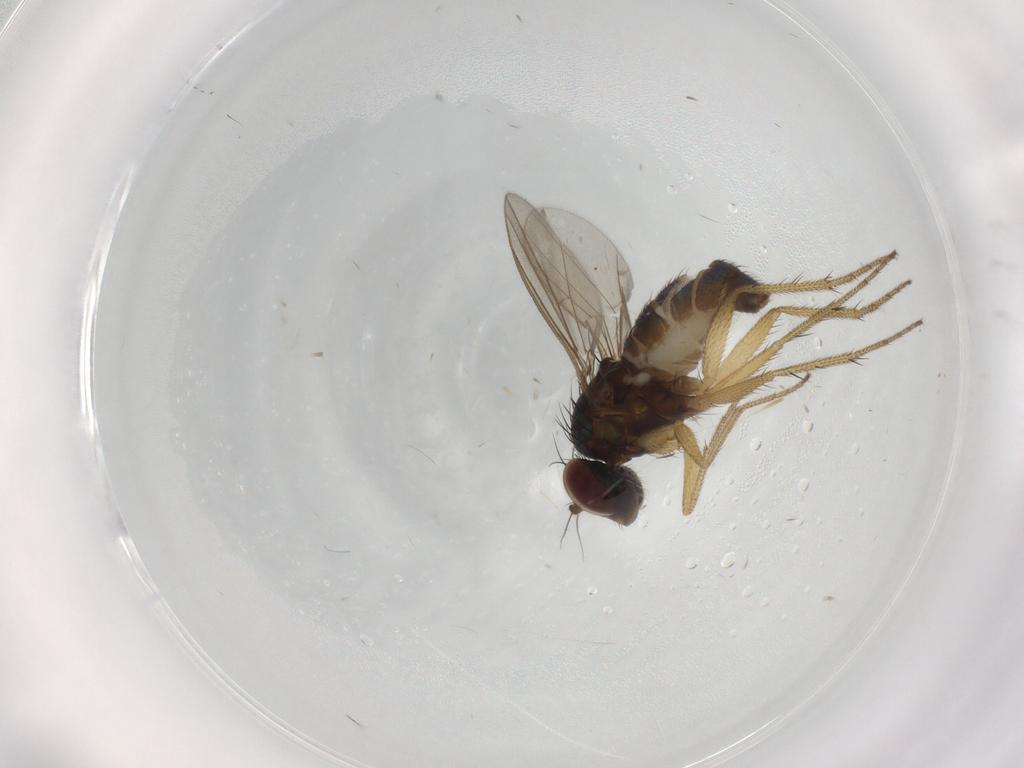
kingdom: Animalia
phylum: Arthropoda
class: Insecta
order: Diptera
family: Dolichopodidae
